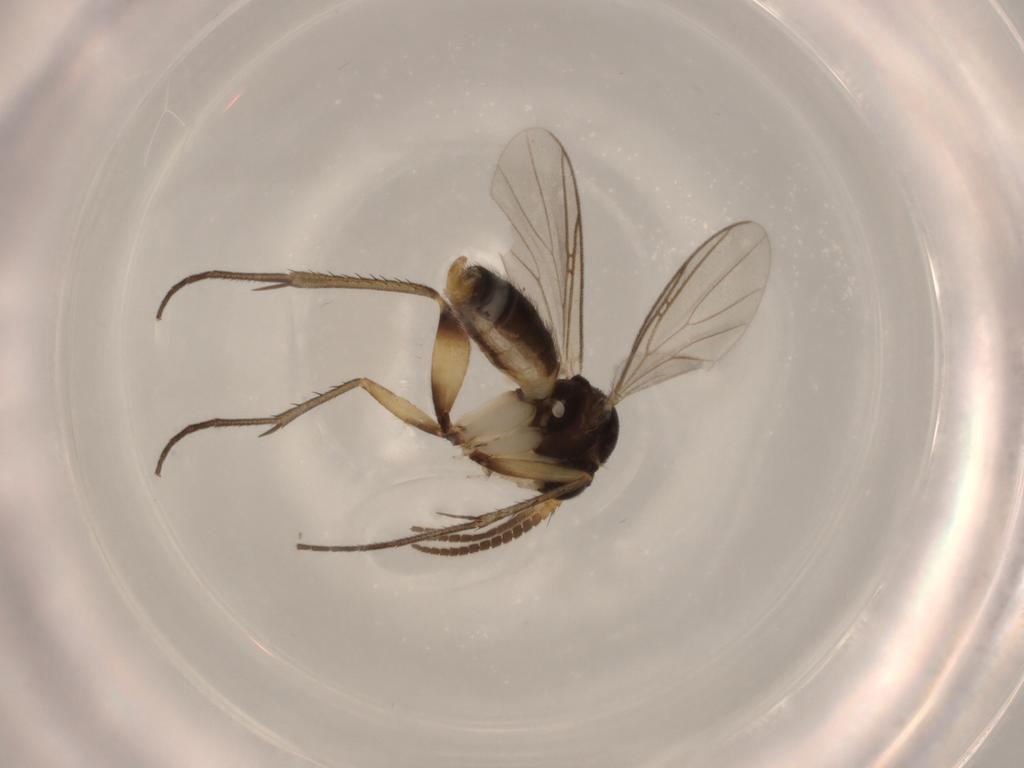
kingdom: Animalia
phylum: Arthropoda
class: Insecta
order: Diptera
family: Mycetophilidae
